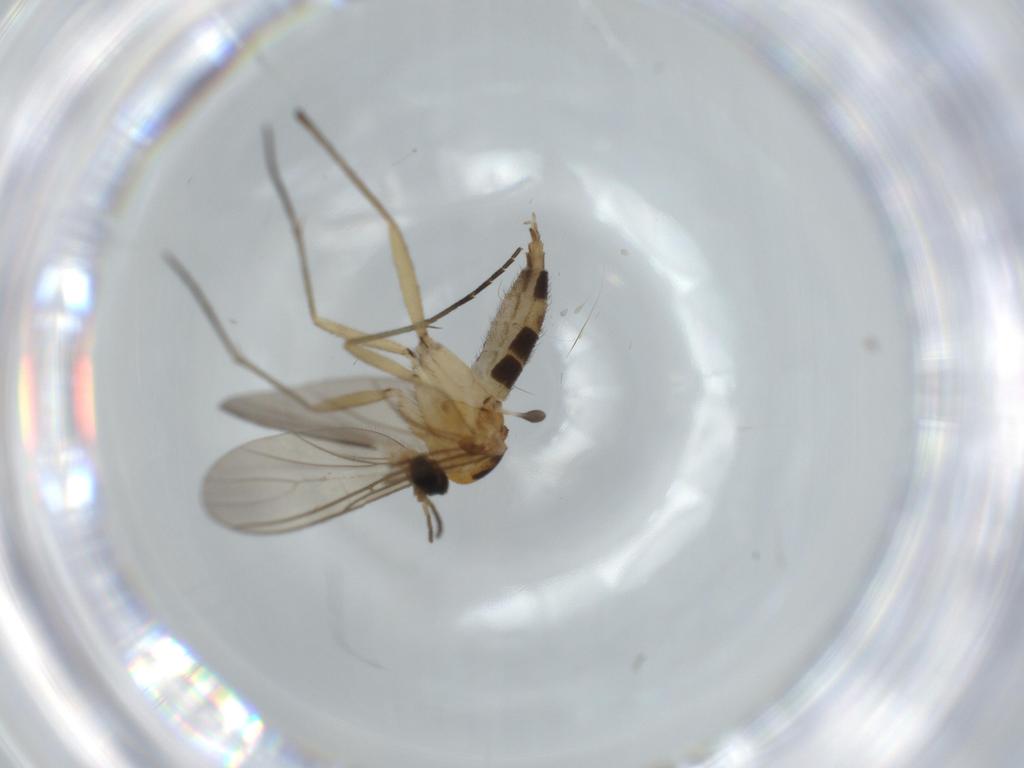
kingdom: Animalia
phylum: Arthropoda
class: Insecta
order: Diptera
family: Sciaridae
